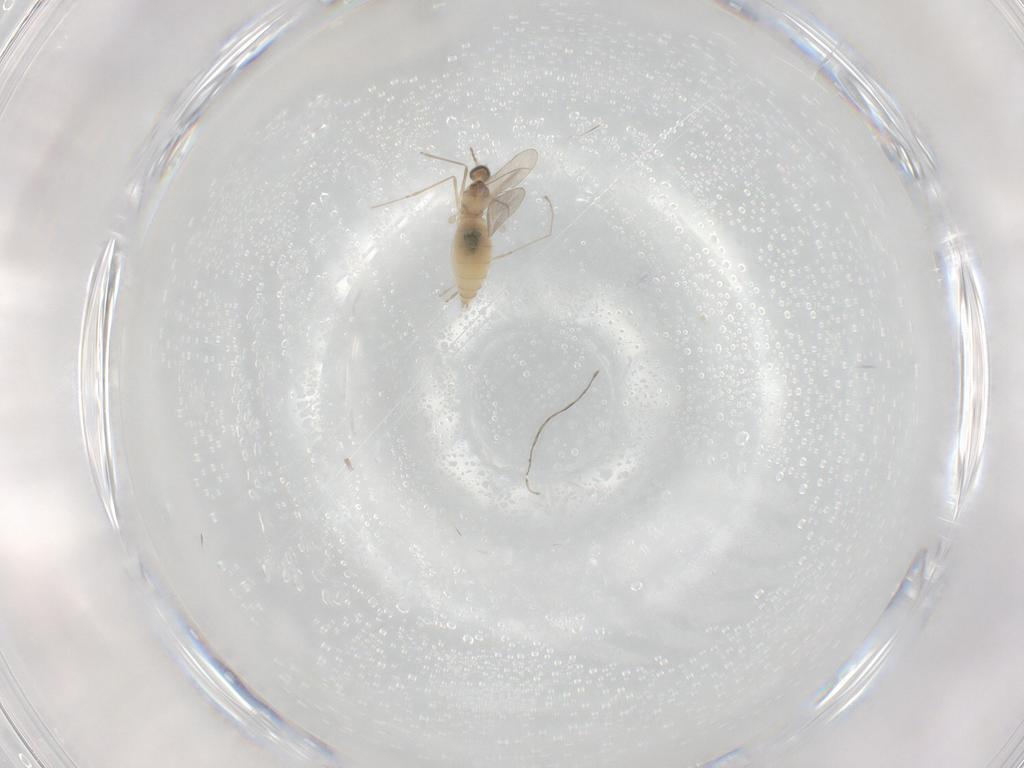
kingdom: Animalia
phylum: Arthropoda
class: Insecta
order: Diptera
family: Cecidomyiidae
